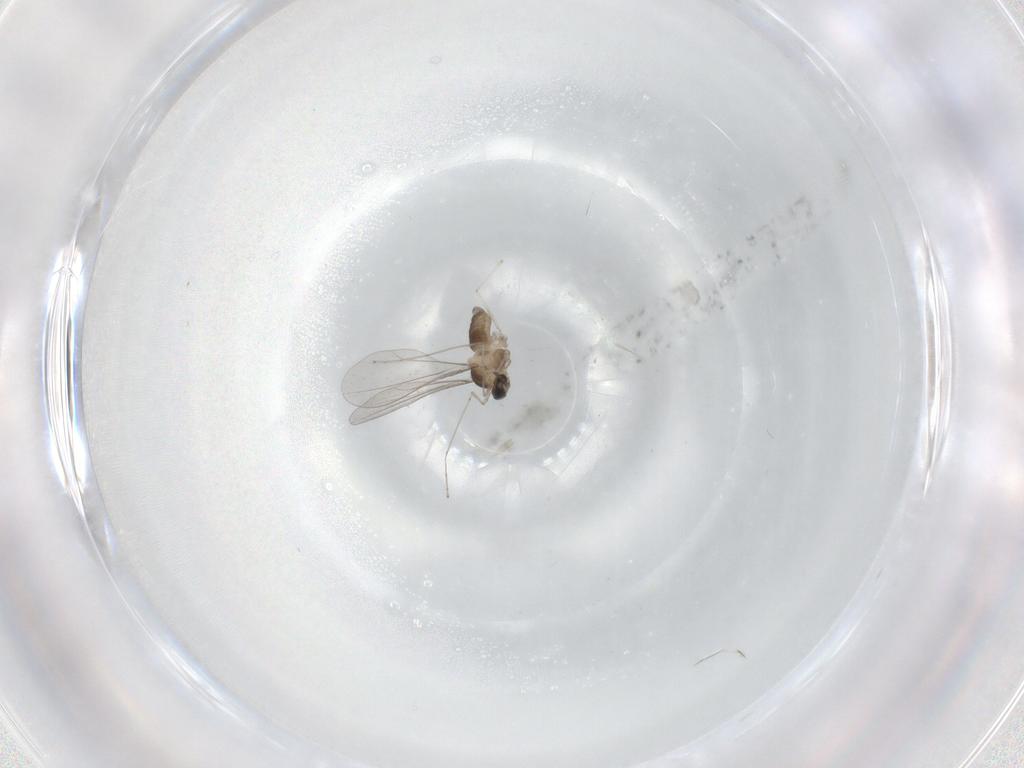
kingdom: Animalia
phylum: Arthropoda
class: Insecta
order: Diptera
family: Cecidomyiidae
